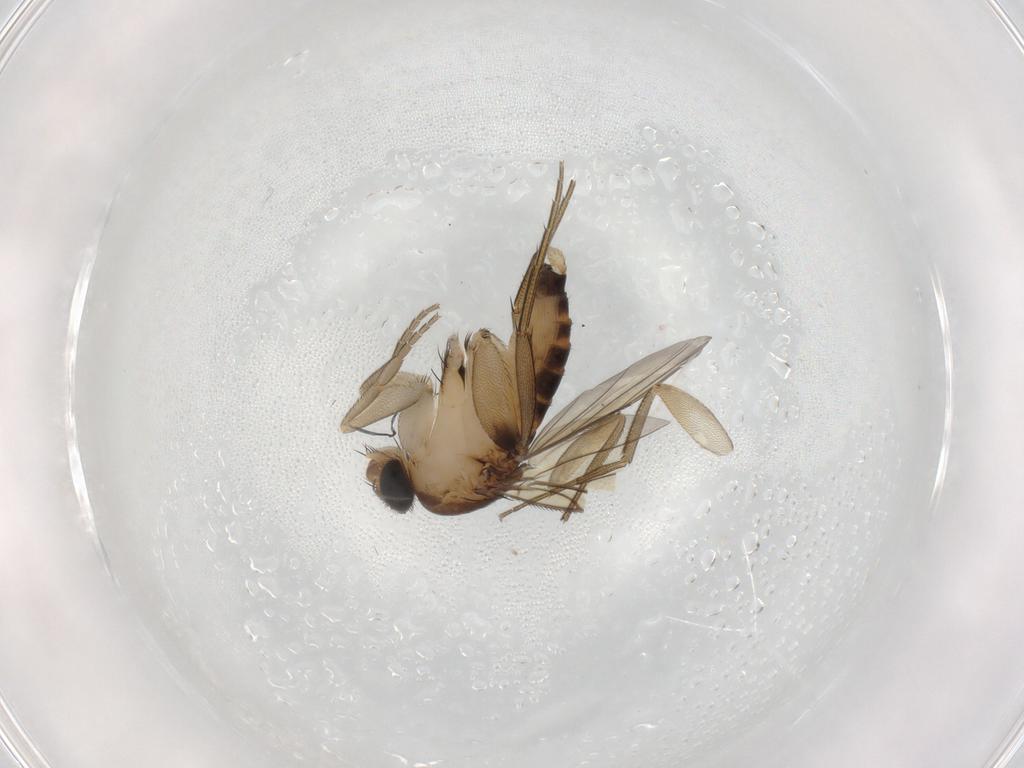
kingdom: Animalia
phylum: Arthropoda
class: Insecta
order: Diptera
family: Phoridae
